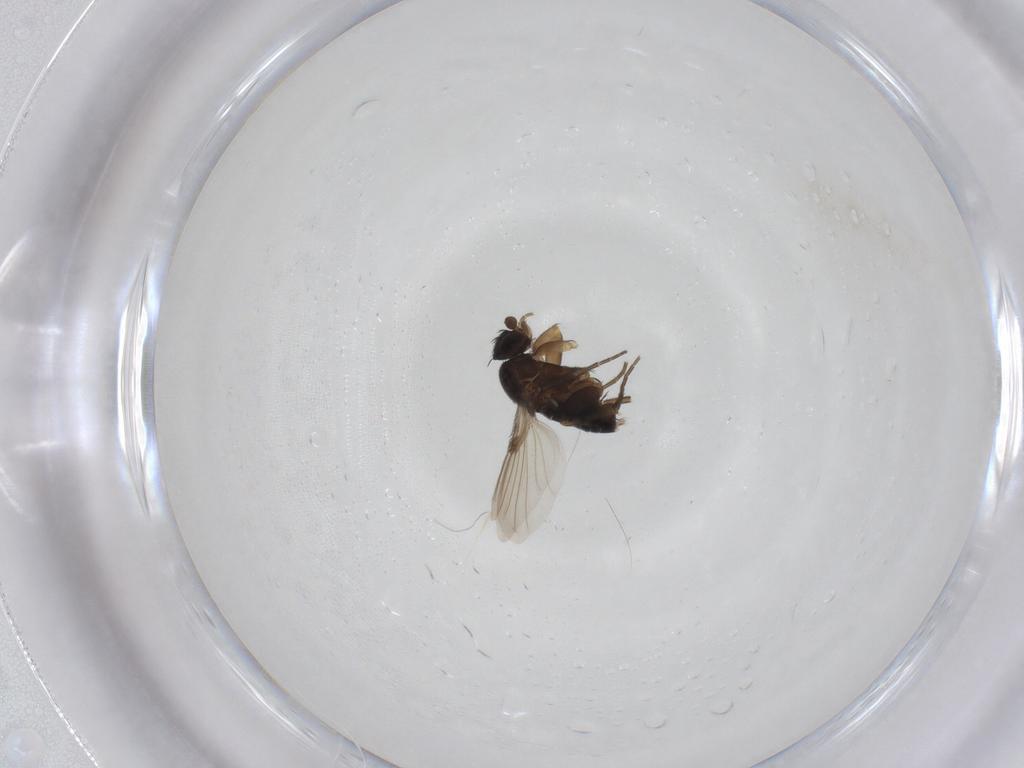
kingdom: Animalia
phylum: Arthropoda
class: Insecta
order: Diptera
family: Phoridae
